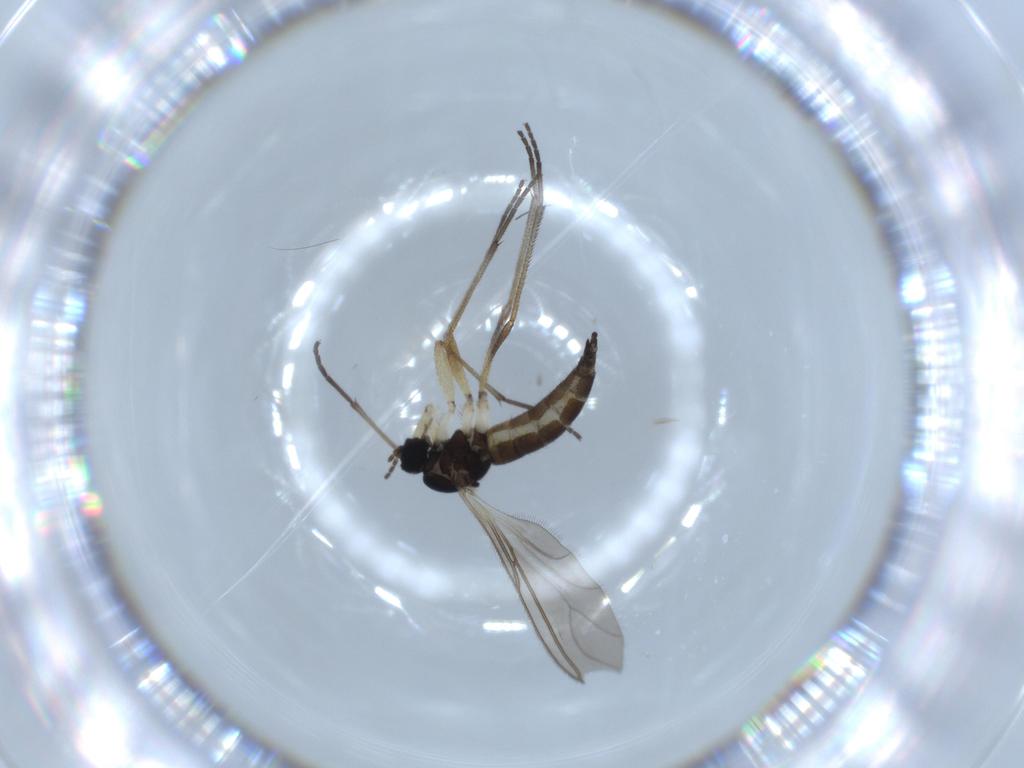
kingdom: Animalia
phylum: Arthropoda
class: Insecta
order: Diptera
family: Sciaridae
